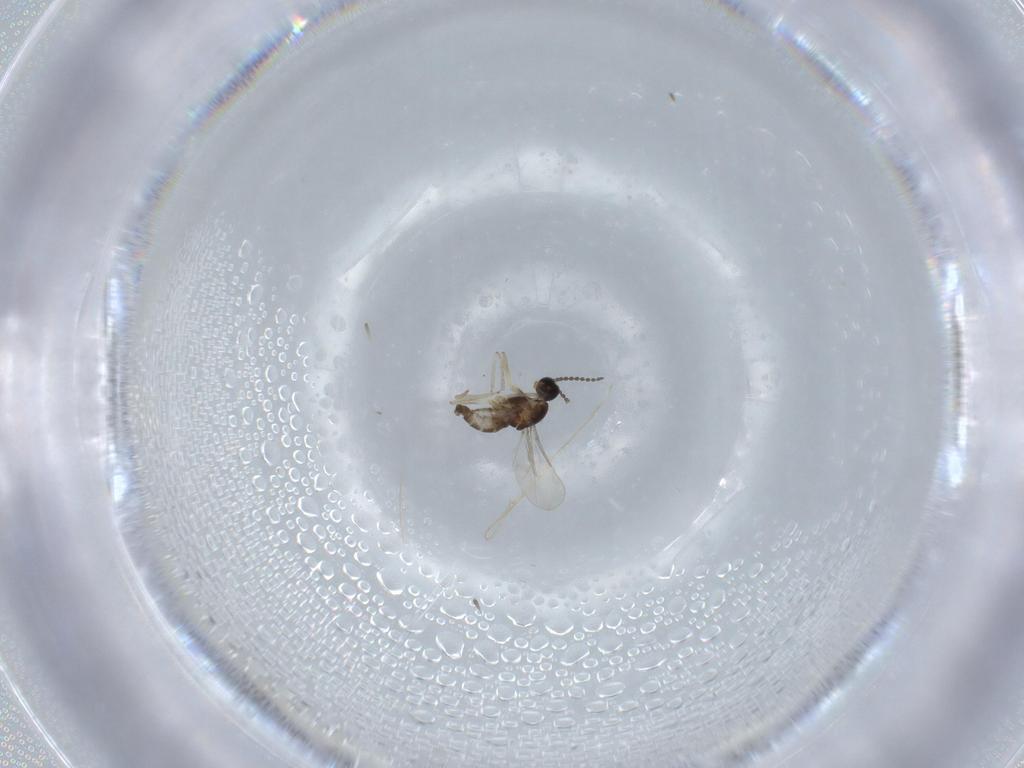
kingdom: Animalia
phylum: Arthropoda
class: Insecta
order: Diptera
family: Cecidomyiidae
